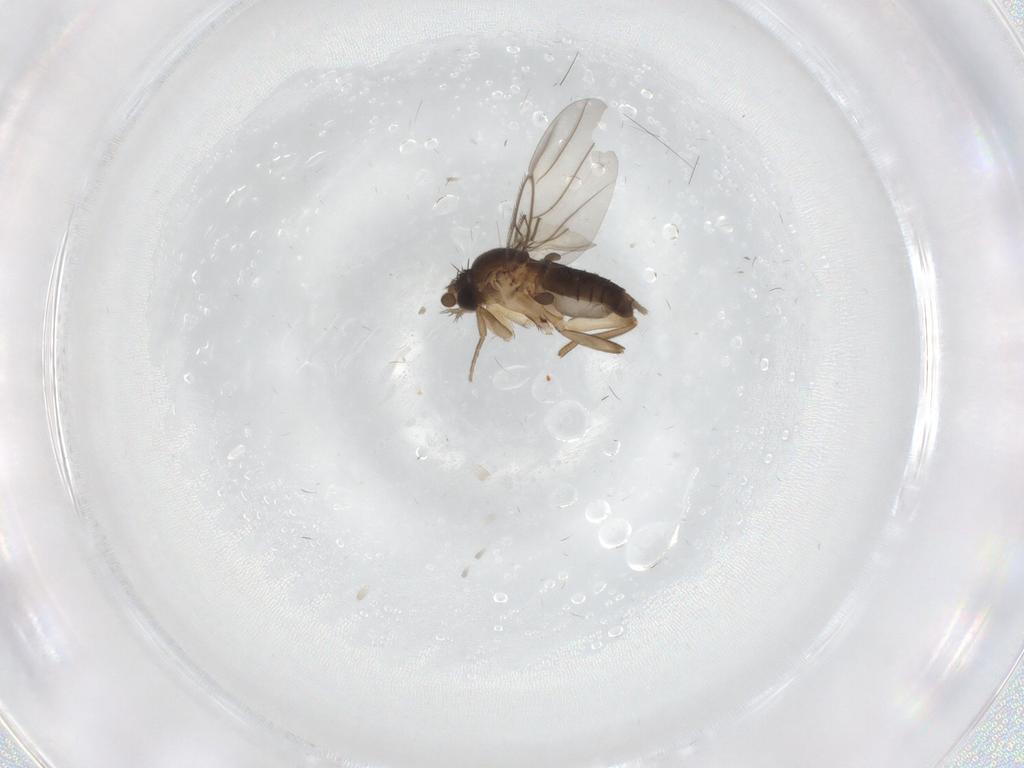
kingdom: Animalia
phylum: Arthropoda
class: Insecta
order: Diptera
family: Phoridae
